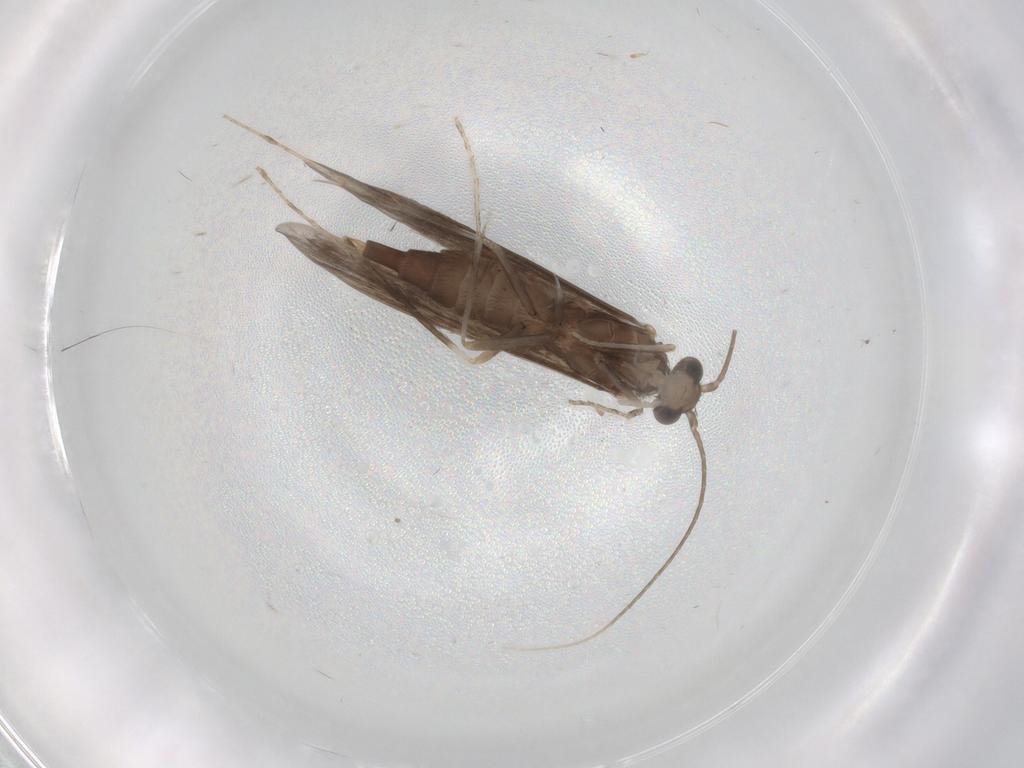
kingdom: Animalia
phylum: Arthropoda
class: Insecta
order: Trichoptera
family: Xiphocentronidae
